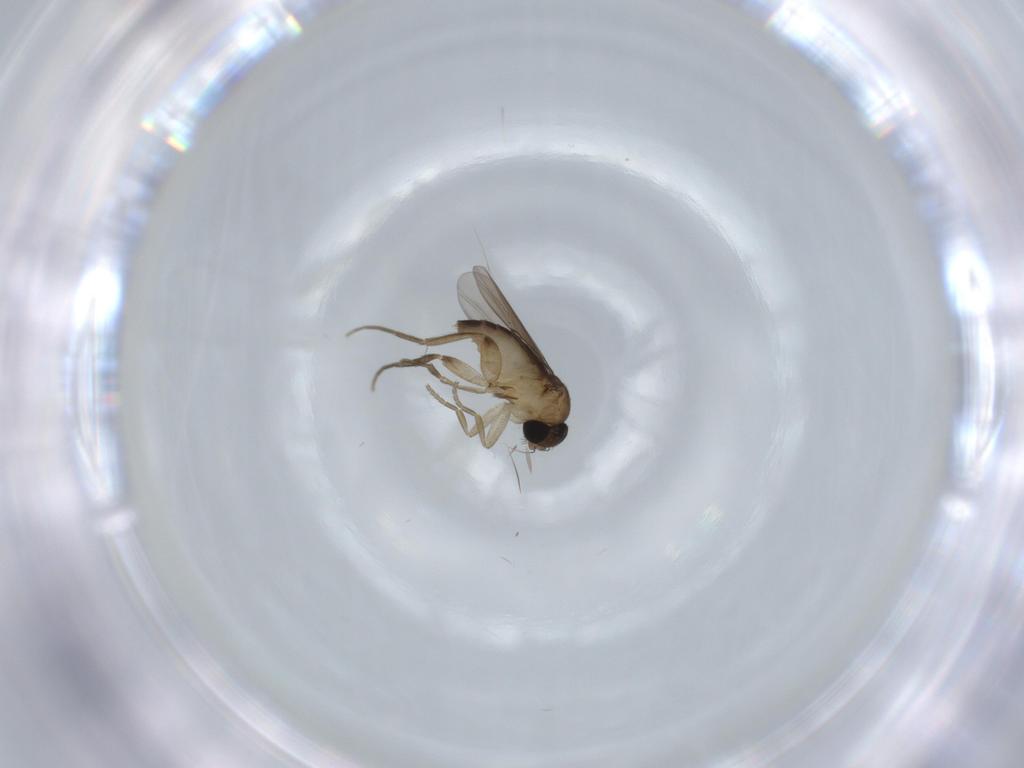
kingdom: Animalia
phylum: Arthropoda
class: Insecta
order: Diptera
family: Phoridae
